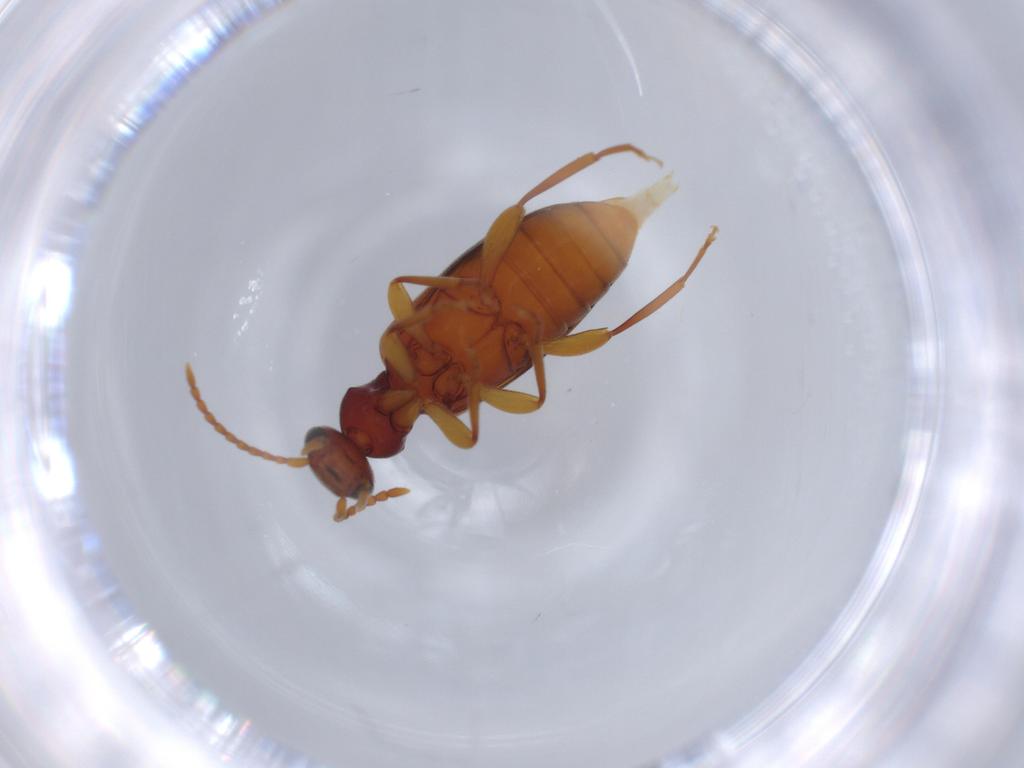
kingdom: Animalia
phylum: Arthropoda
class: Insecta
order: Coleoptera
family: Anthicidae
